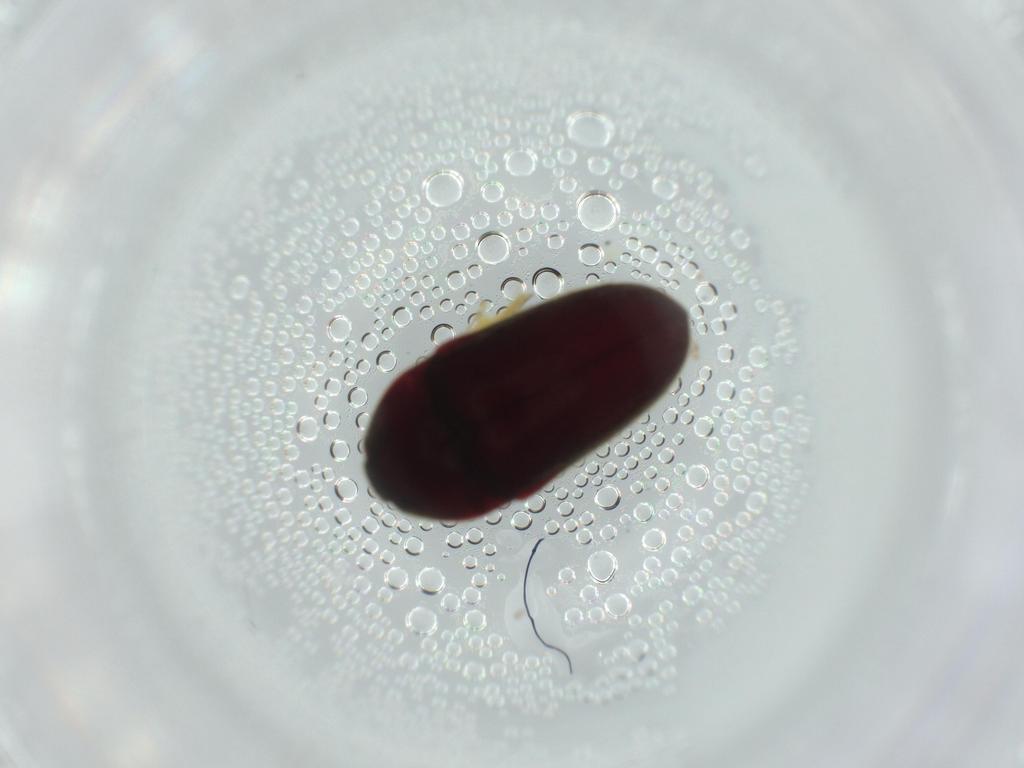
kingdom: Animalia
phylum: Arthropoda
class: Insecta
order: Coleoptera
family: Throscidae
